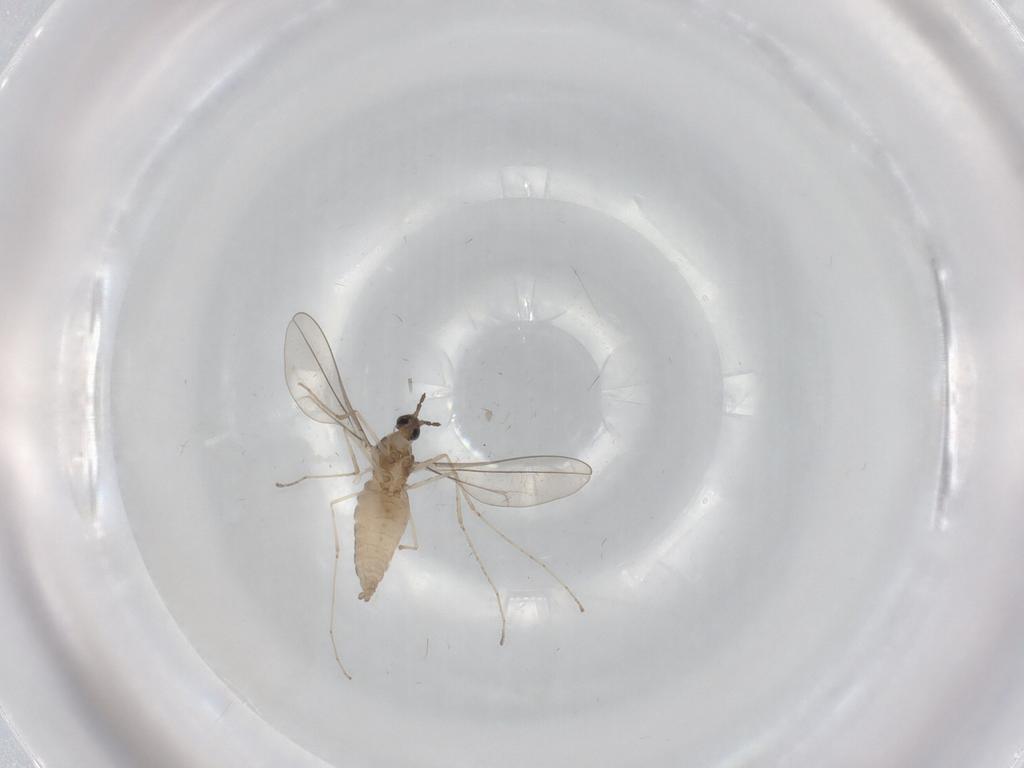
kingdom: Animalia
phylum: Arthropoda
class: Insecta
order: Diptera
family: Cecidomyiidae
